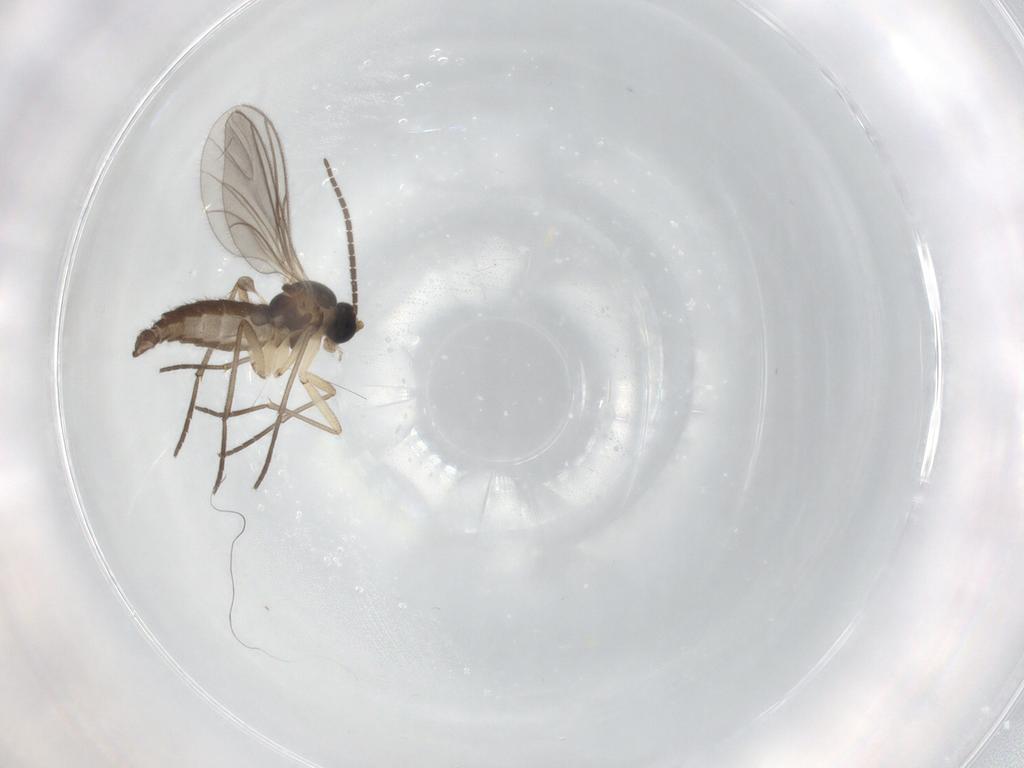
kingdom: Animalia
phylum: Arthropoda
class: Insecta
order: Diptera
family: Sciaridae
